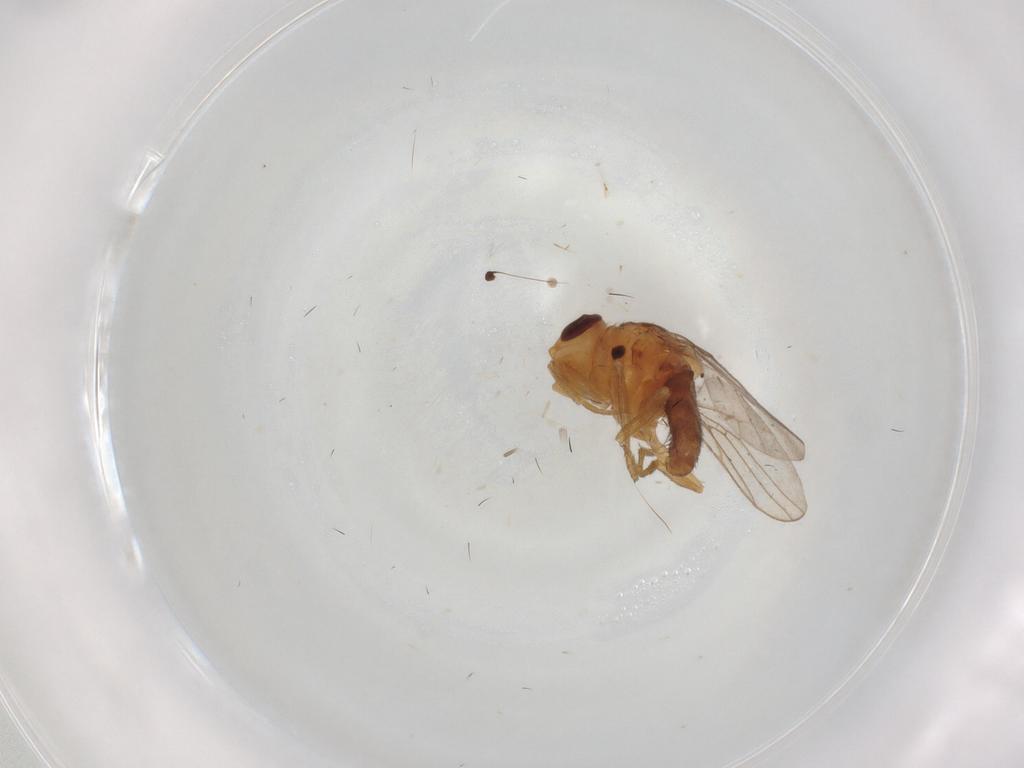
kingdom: Animalia
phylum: Arthropoda
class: Insecta
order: Diptera
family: Chloropidae
